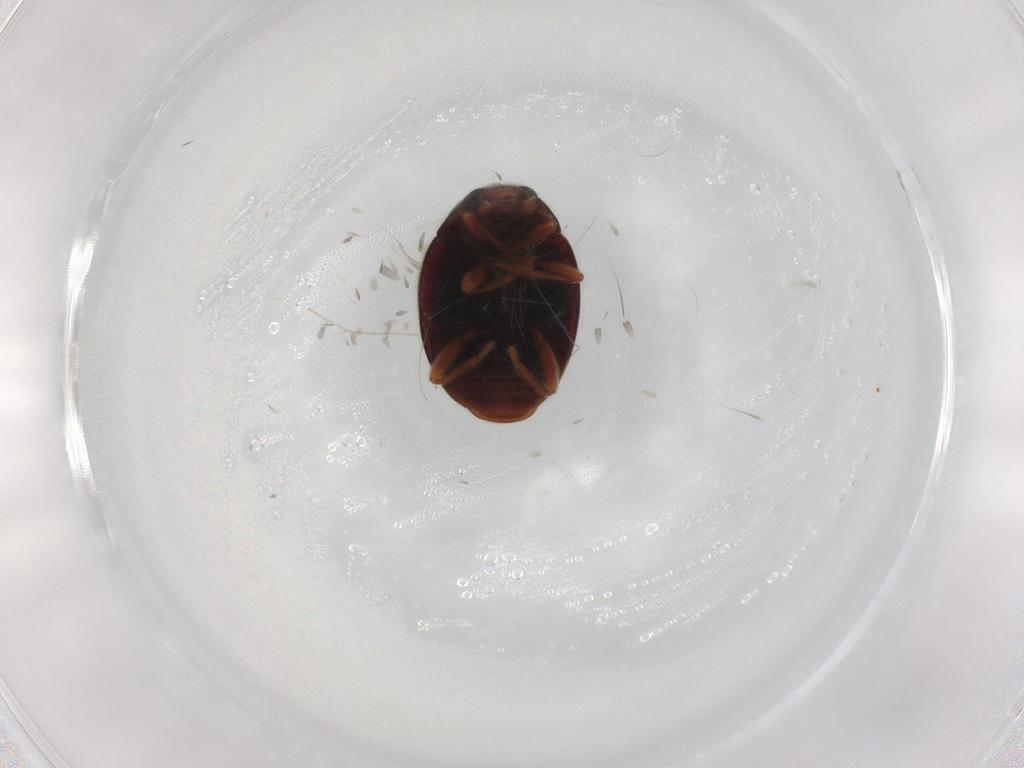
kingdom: Animalia
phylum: Arthropoda
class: Insecta
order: Coleoptera
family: Coccinellidae
